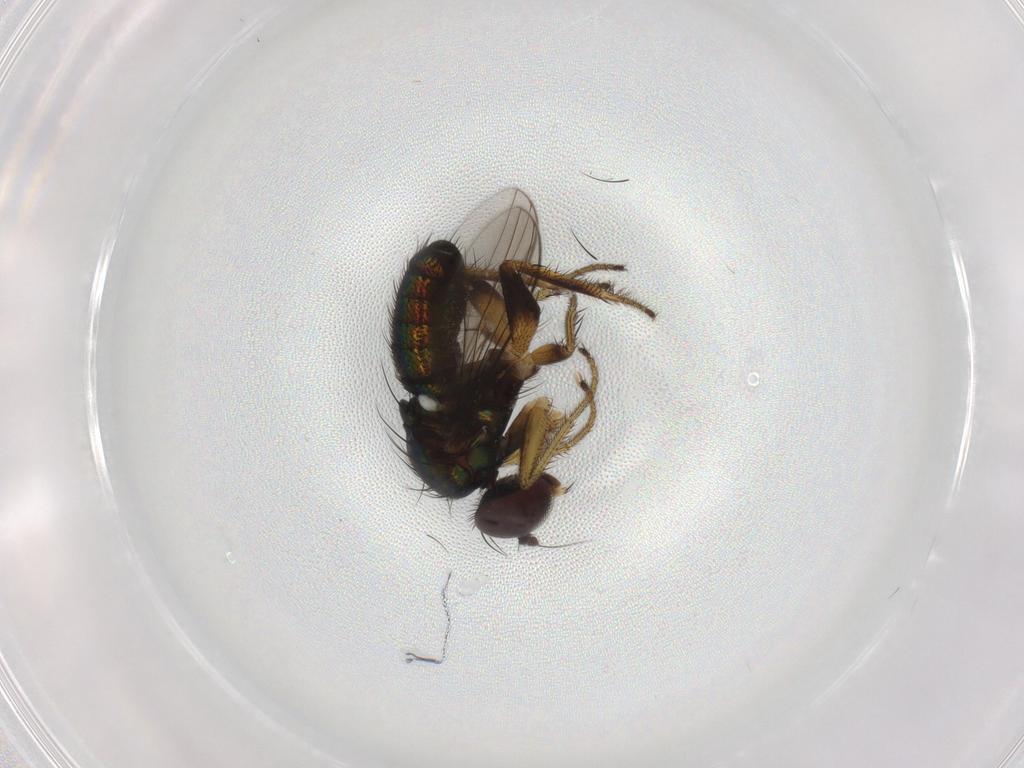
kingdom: Animalia
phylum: Arthropoda
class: Insecta
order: Diptera
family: Dolichopodidae
